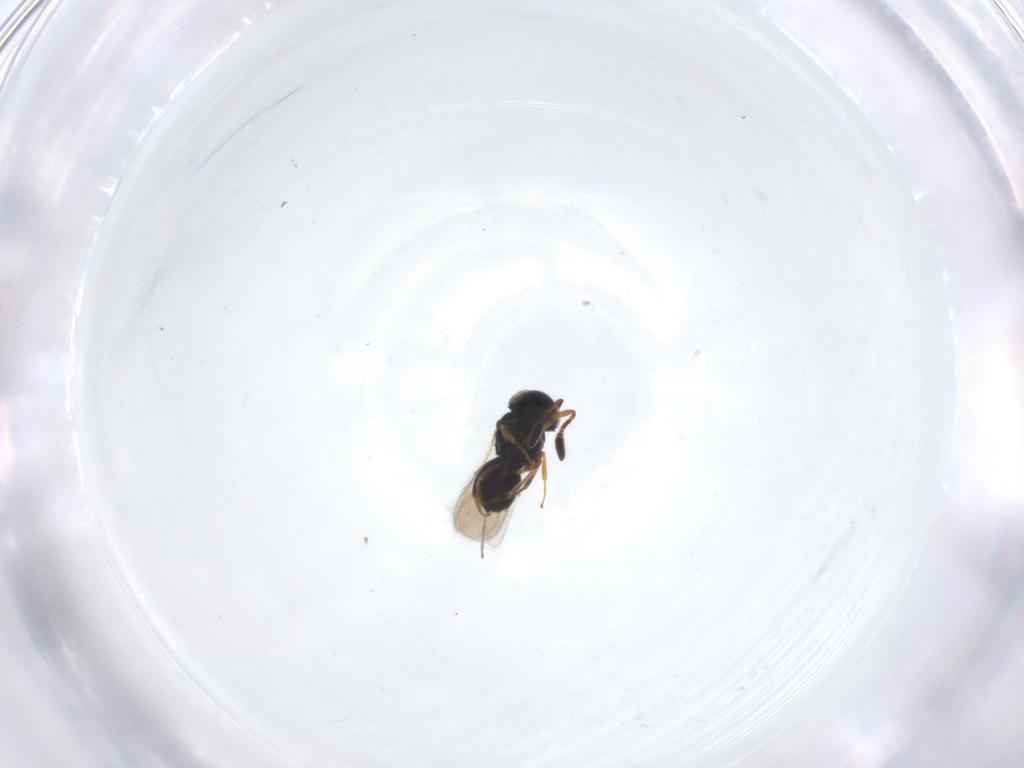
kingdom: Animalia
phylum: Arthropoda
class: Insecta
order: Hymenoptera
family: Scelionidae
